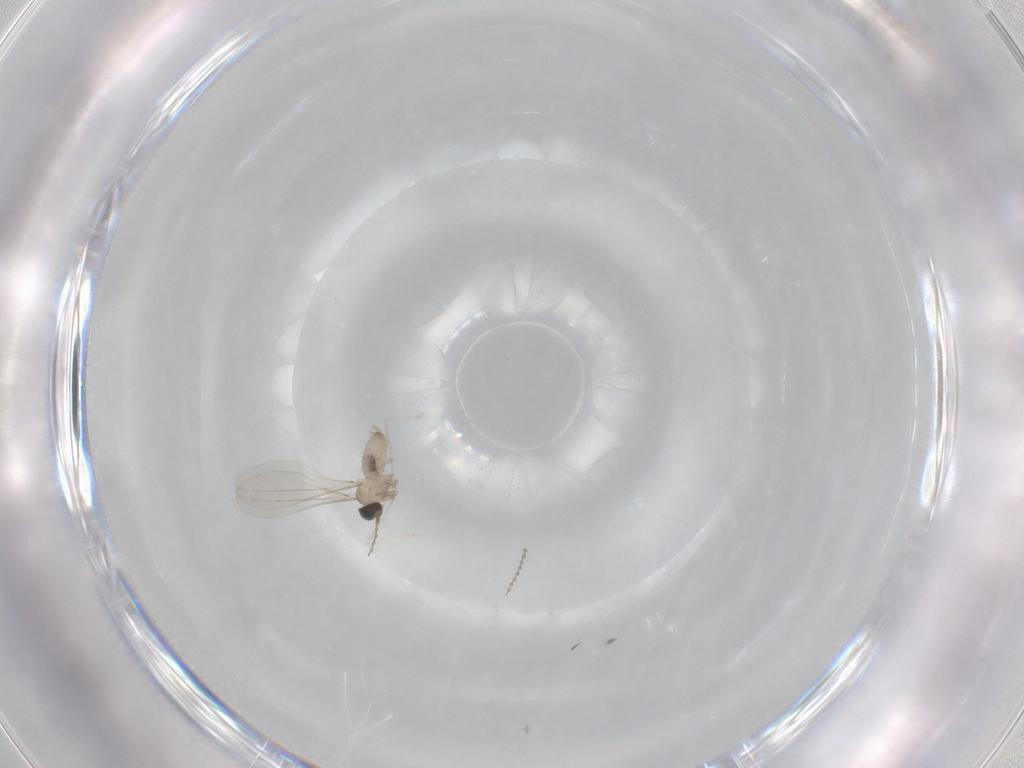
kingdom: Animalia
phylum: Arthropoda
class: Insecta
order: Diptera
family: Cecidomyiidae
